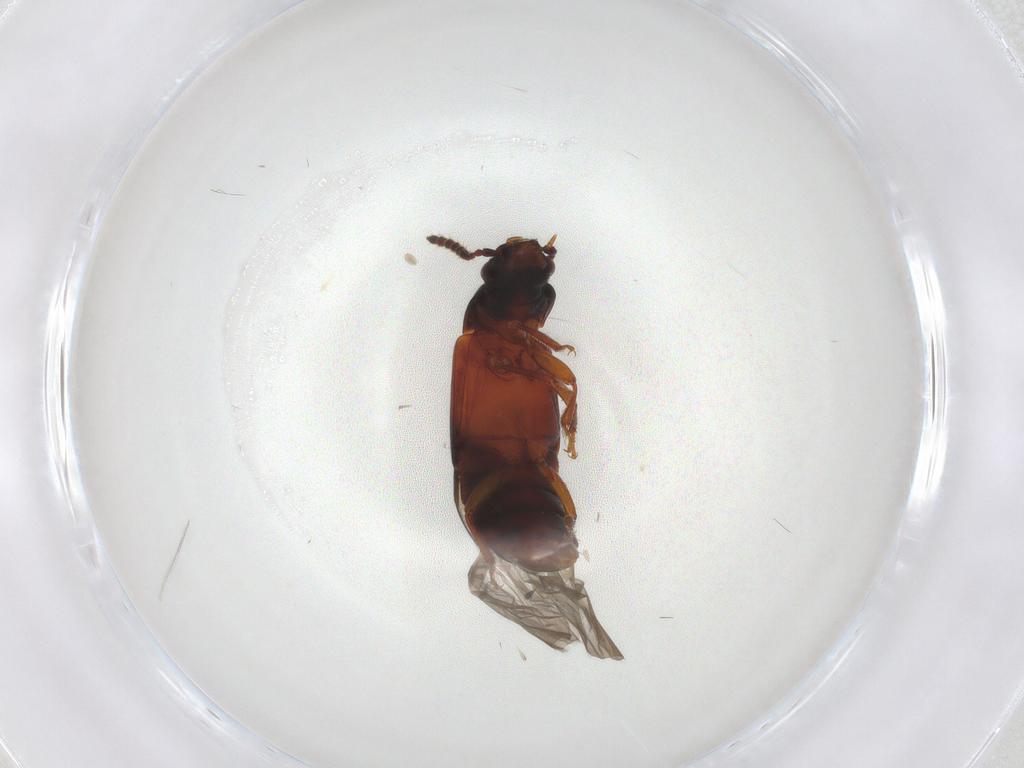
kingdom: Animalia
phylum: Arthropoda
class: Insecta
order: Coleoptera
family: Staphylinidae
